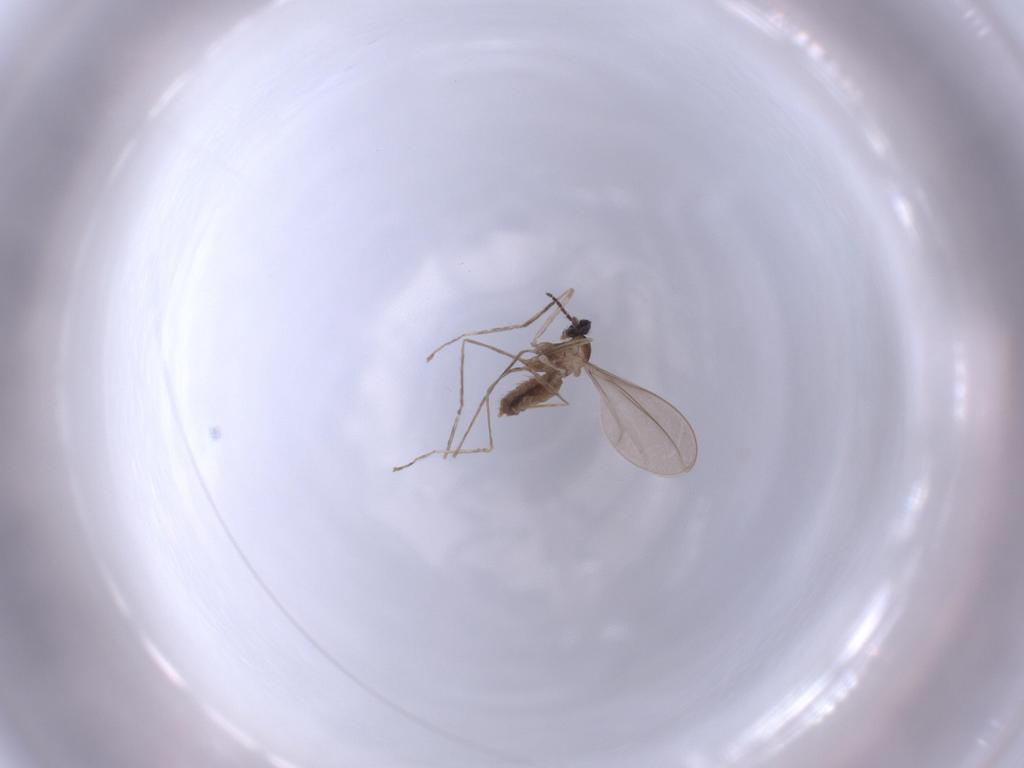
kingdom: Animalia
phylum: Arthropoda
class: Insecta
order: Diptera
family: Cecidomyiidae
